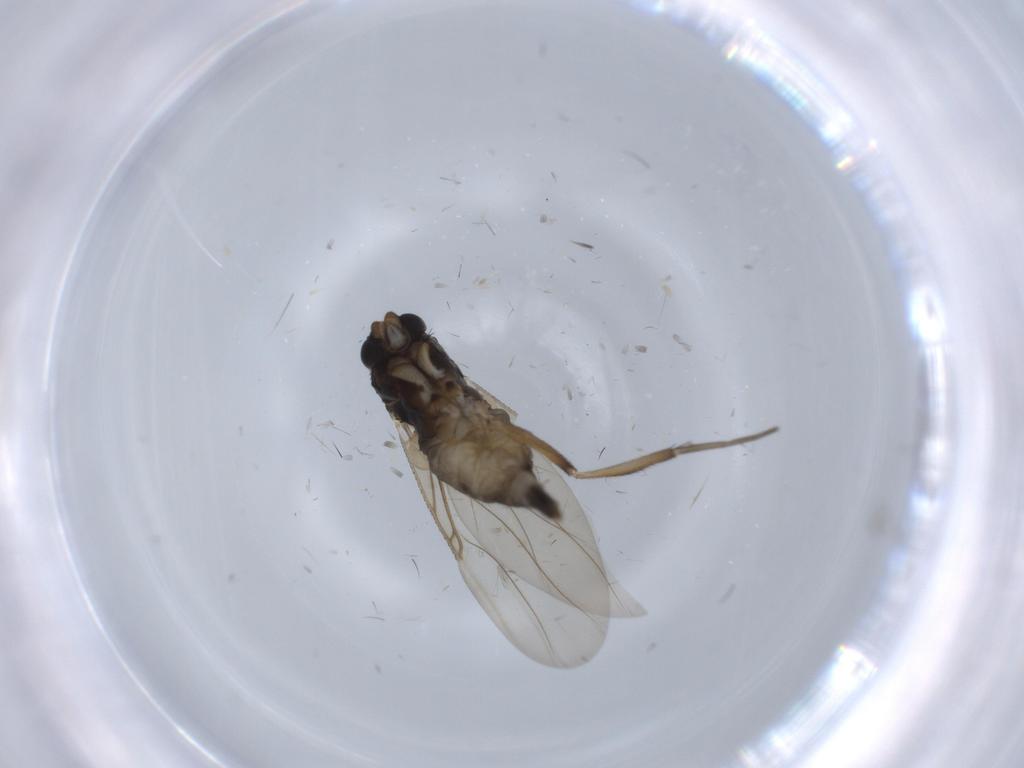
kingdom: Animalia
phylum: Arthropoda
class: Insecta
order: Diptera
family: Phoridae
